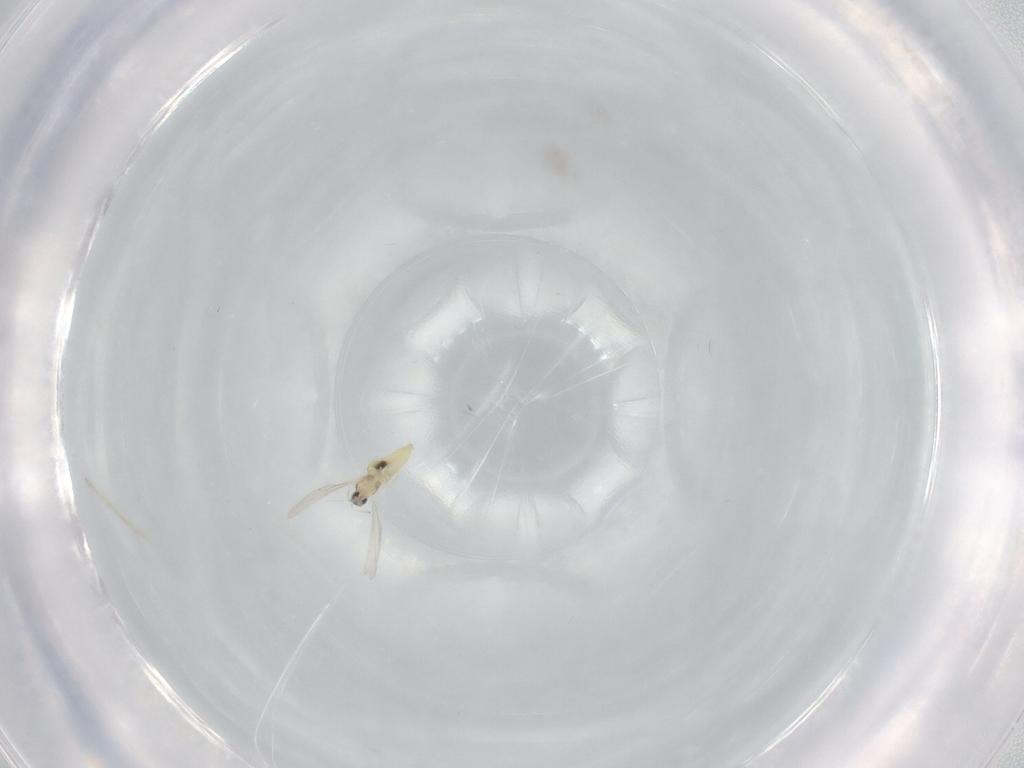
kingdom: Animalia
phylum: Arthropoda
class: Insecta
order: Diptera
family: Cecidomyiidae
